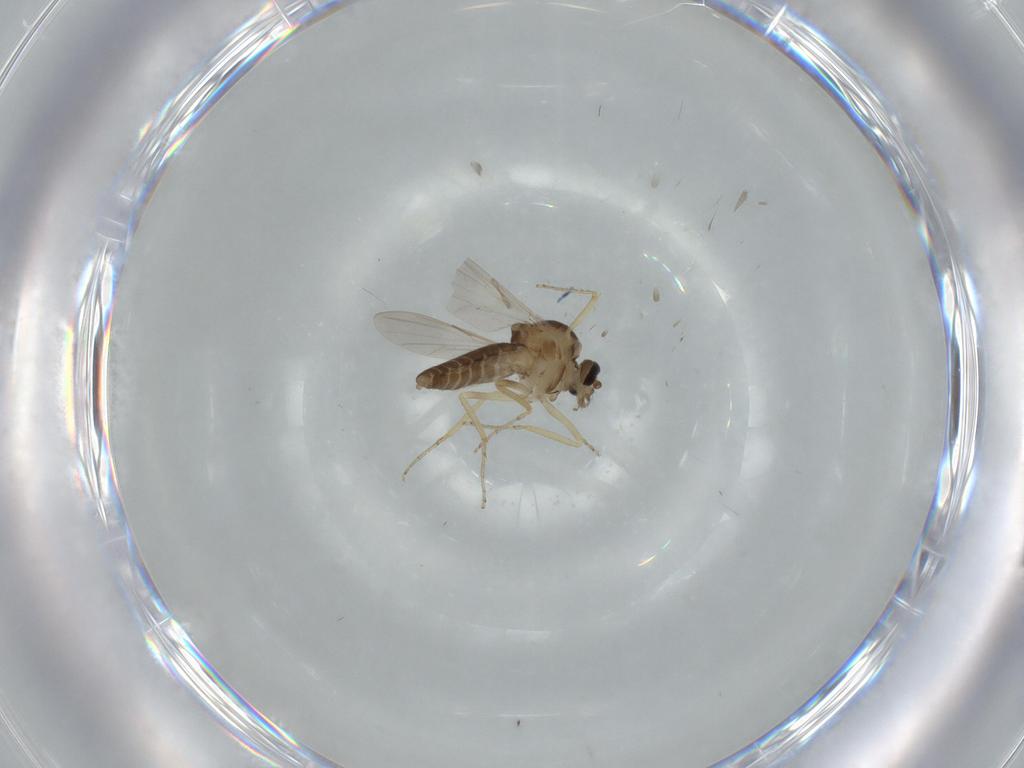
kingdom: Animalia
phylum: Arthropoda
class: Insecta
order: Diptera
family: Ceratopogonidae
